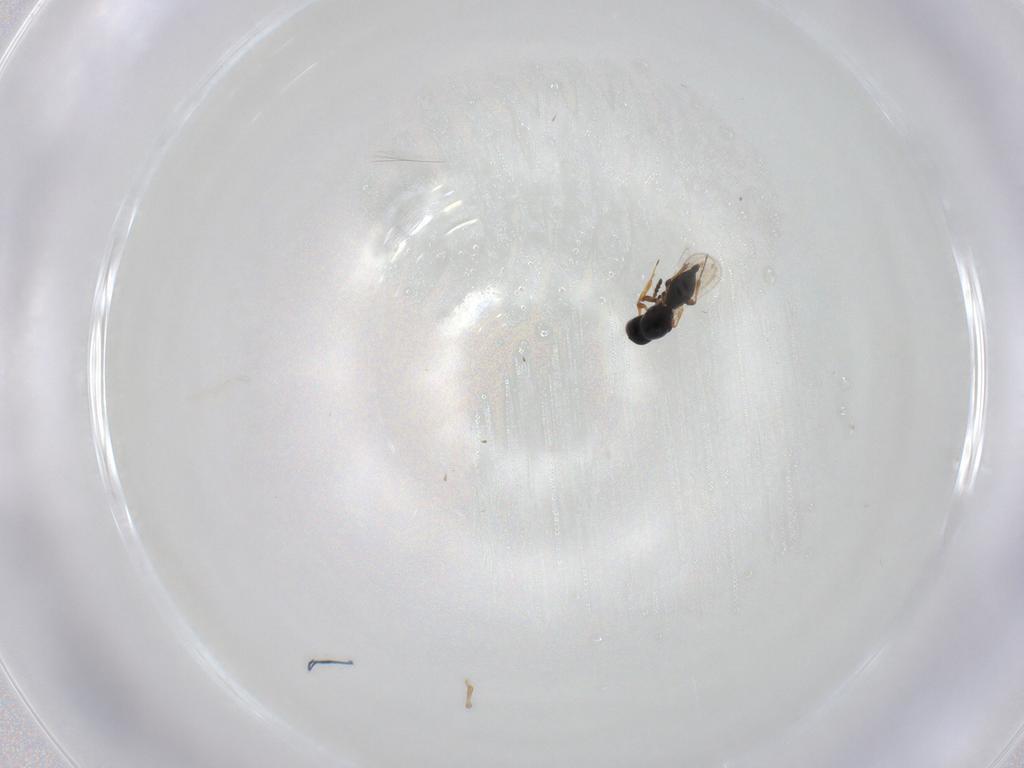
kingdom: Animalia
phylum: Arthropoda
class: Insecta
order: Hymenoptera
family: Platygastridae
